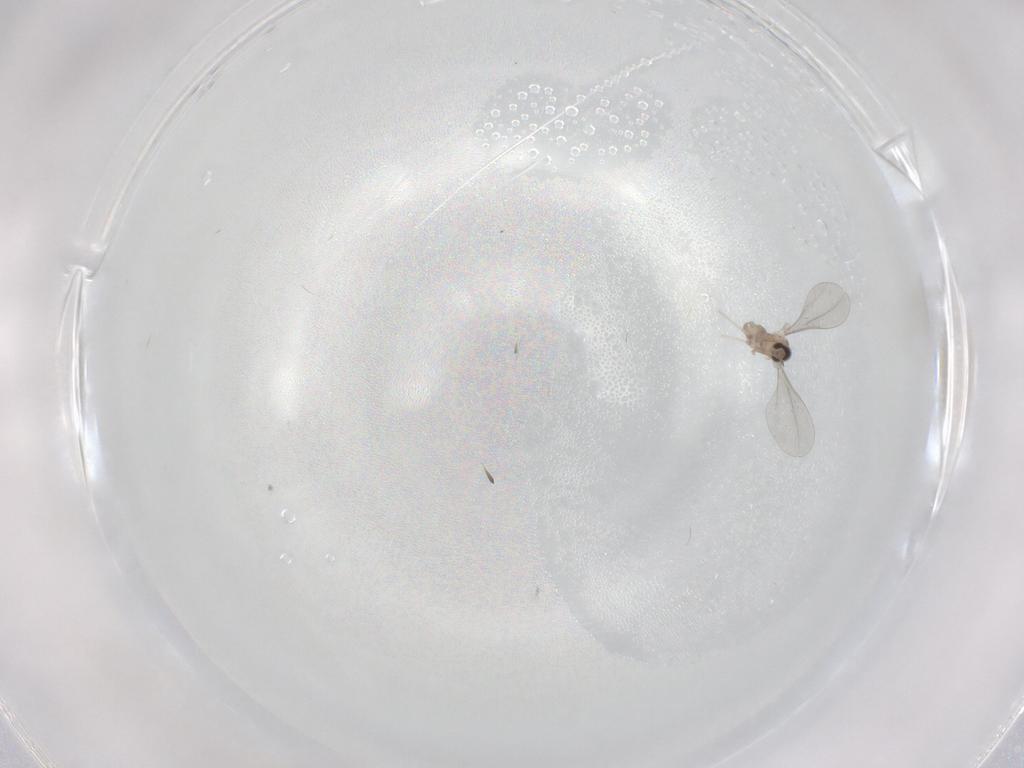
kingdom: Animalia
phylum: Arthropoda
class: Insecta
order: Diptera
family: Cecidomyiidae
